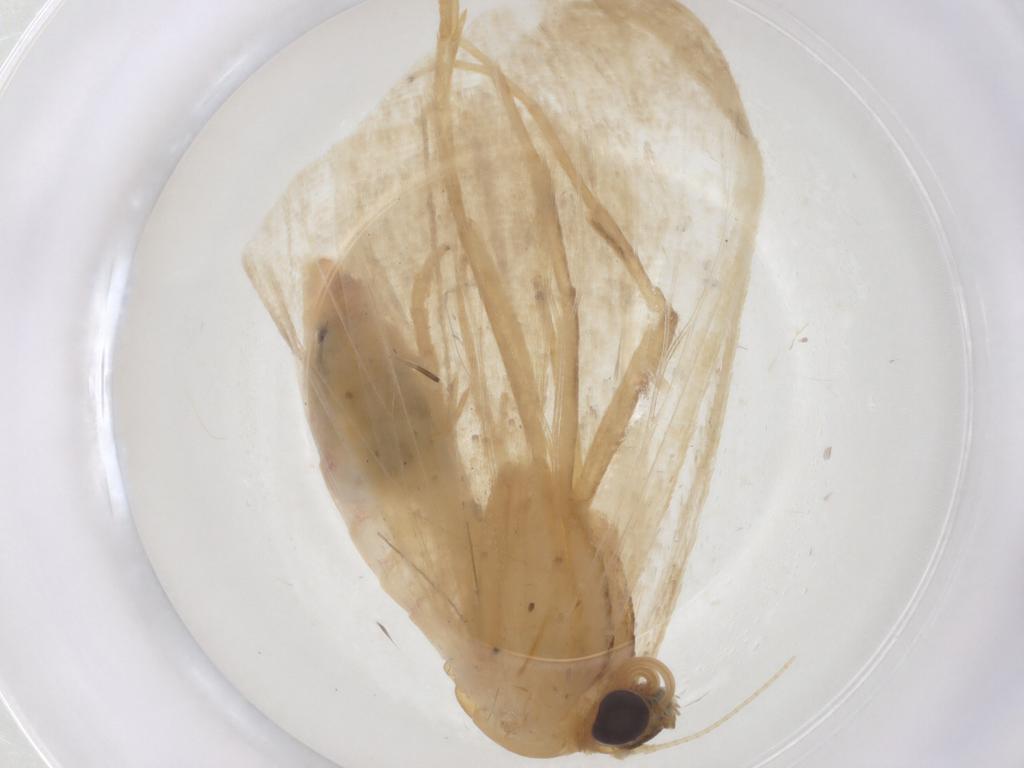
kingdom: Animalia
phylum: Arthropoda
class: Insecta
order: Lepidoptera
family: Geometridae
